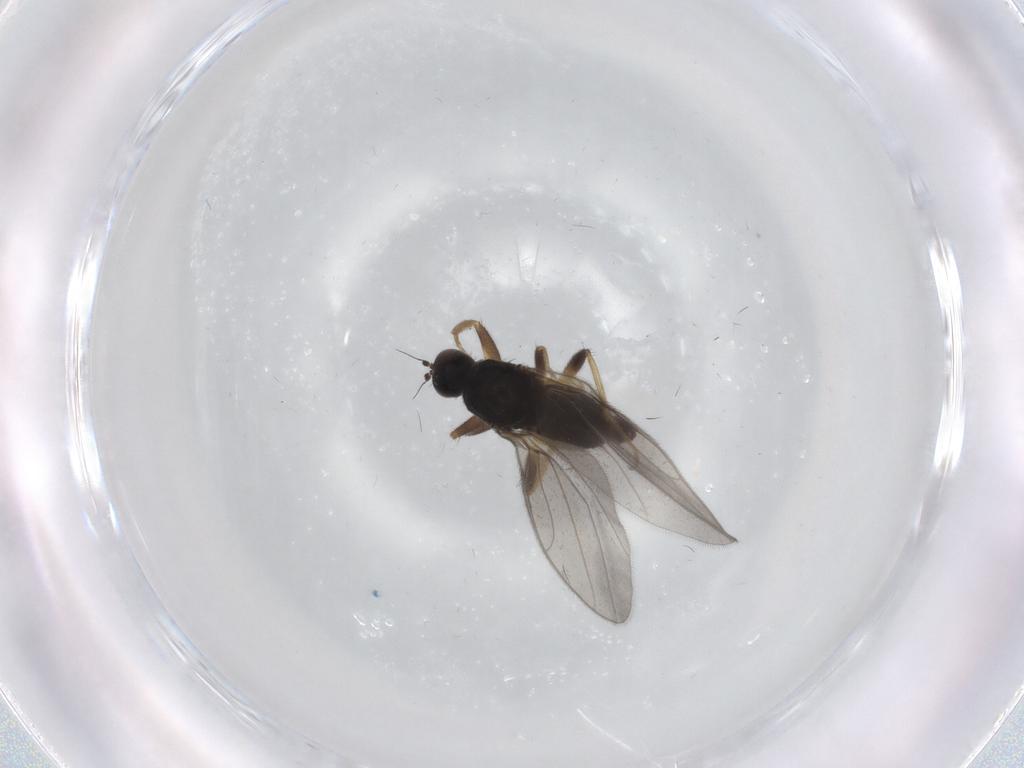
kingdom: Animalia
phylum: Arthropoda
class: Insecta
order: Diptera
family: Hybotidae
